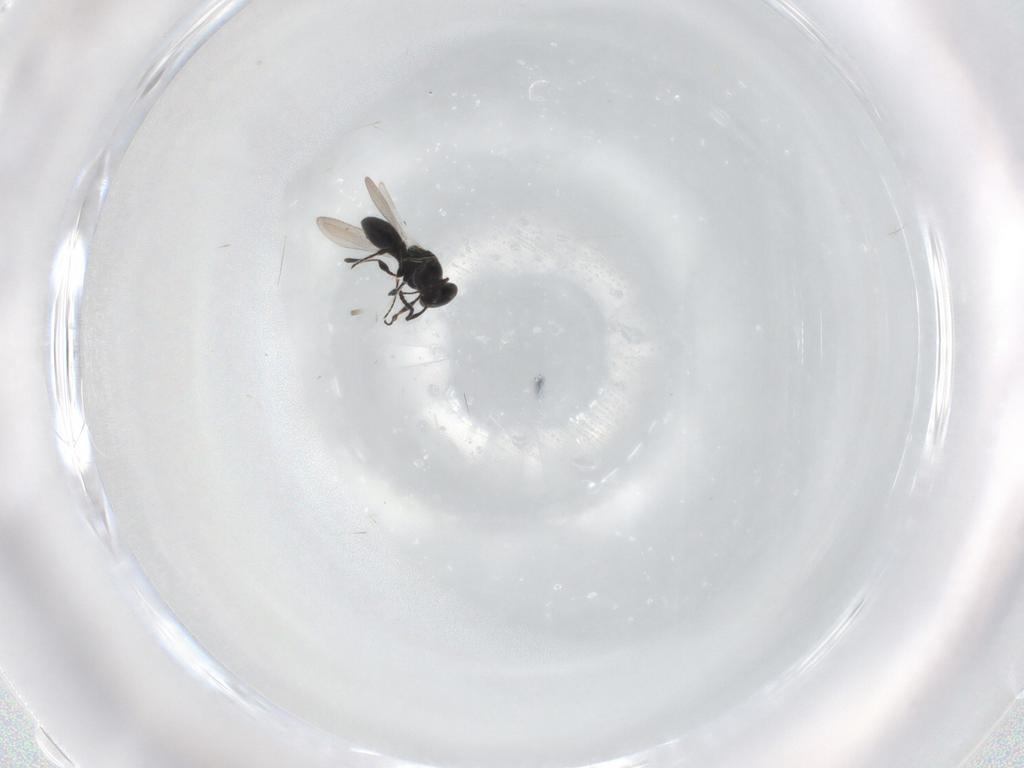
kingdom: Animalia
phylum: Arthropoda
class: Insecta
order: Hymenoptera
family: Platygastridae
